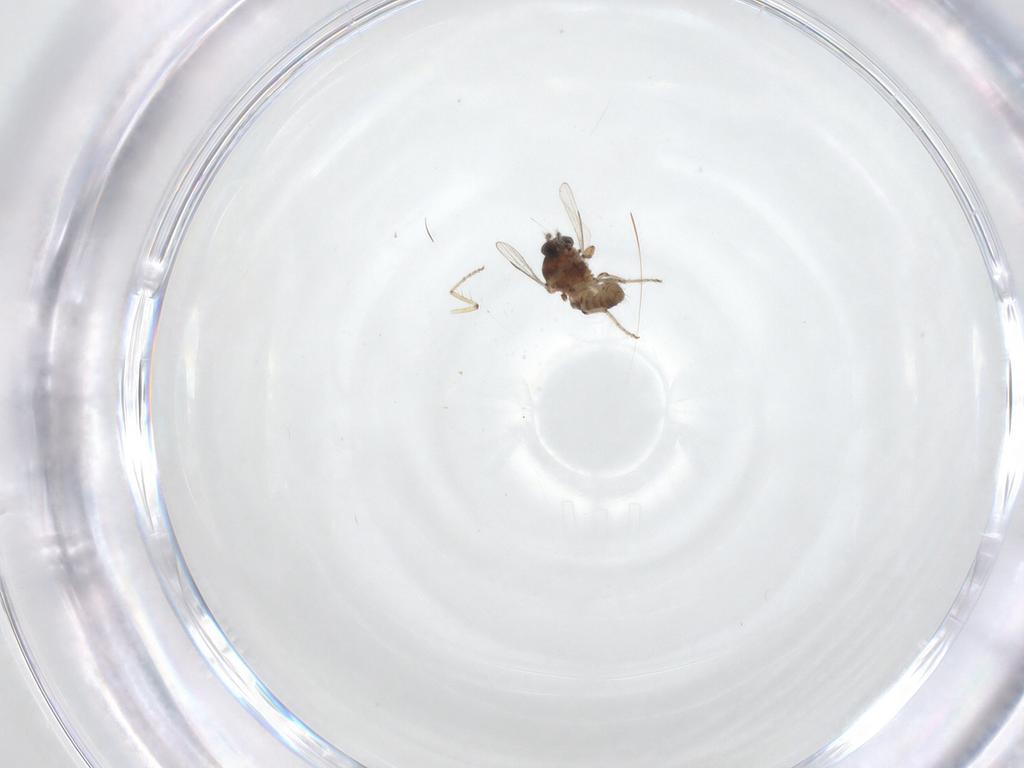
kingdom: Animalia
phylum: Arthropoda
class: Insecta
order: Diptera
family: Ceratopogonidae
